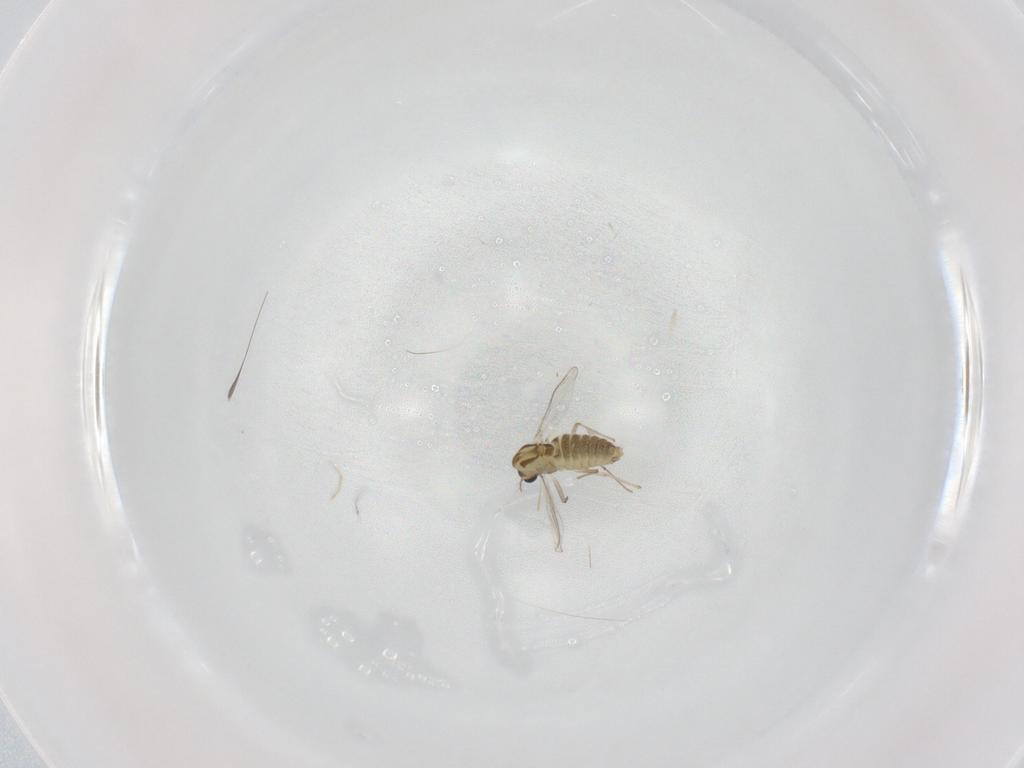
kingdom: Animalia
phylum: Arthropoda
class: Insecta
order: Diptera
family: Chironomidae
